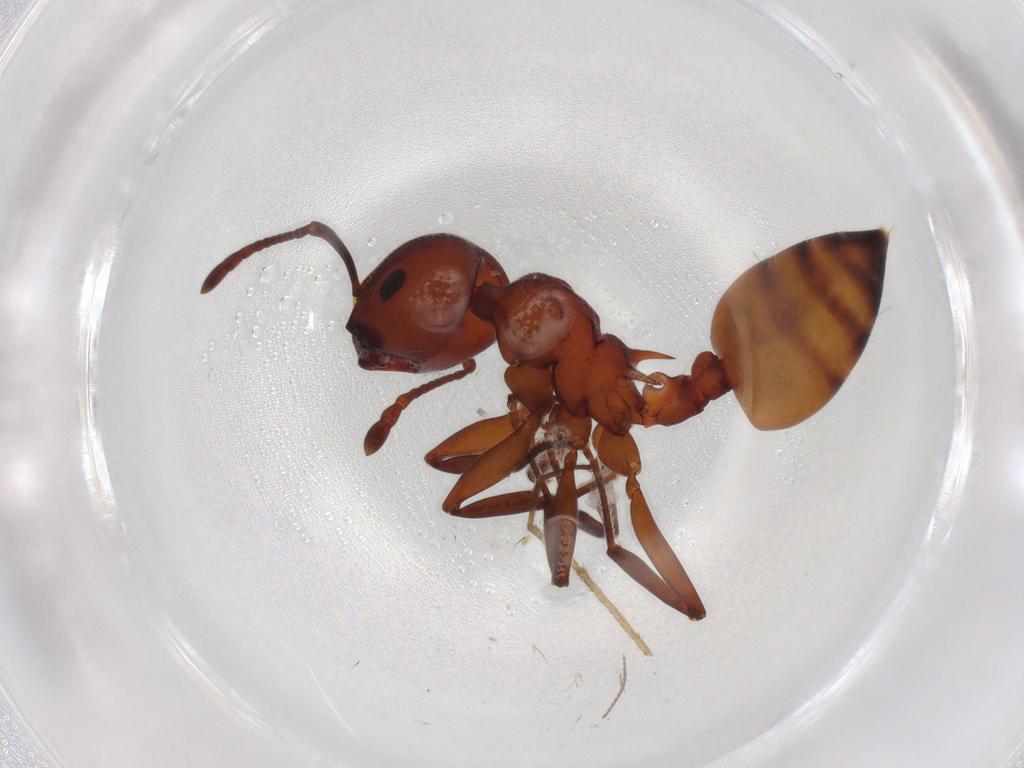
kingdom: Animalia
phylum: Arthropoda
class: Insecta
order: Hymenoptera
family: Formicidae
